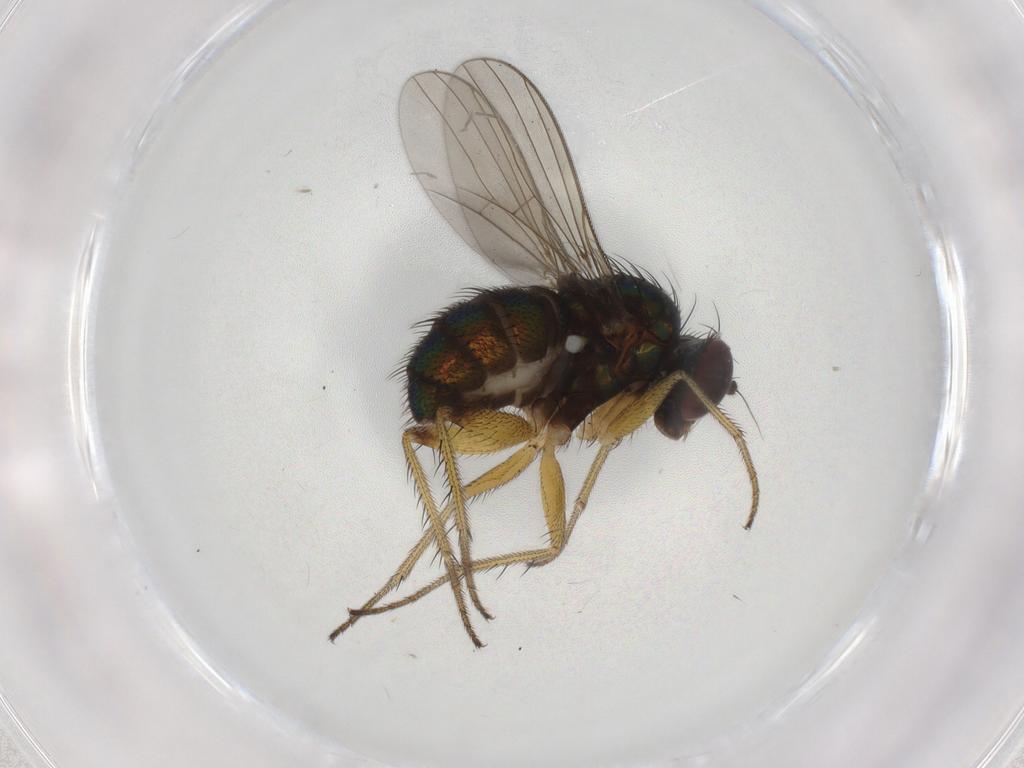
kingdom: Animalia
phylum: Arthropoda
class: Insecta
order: Diptera
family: Dolichopodidae
